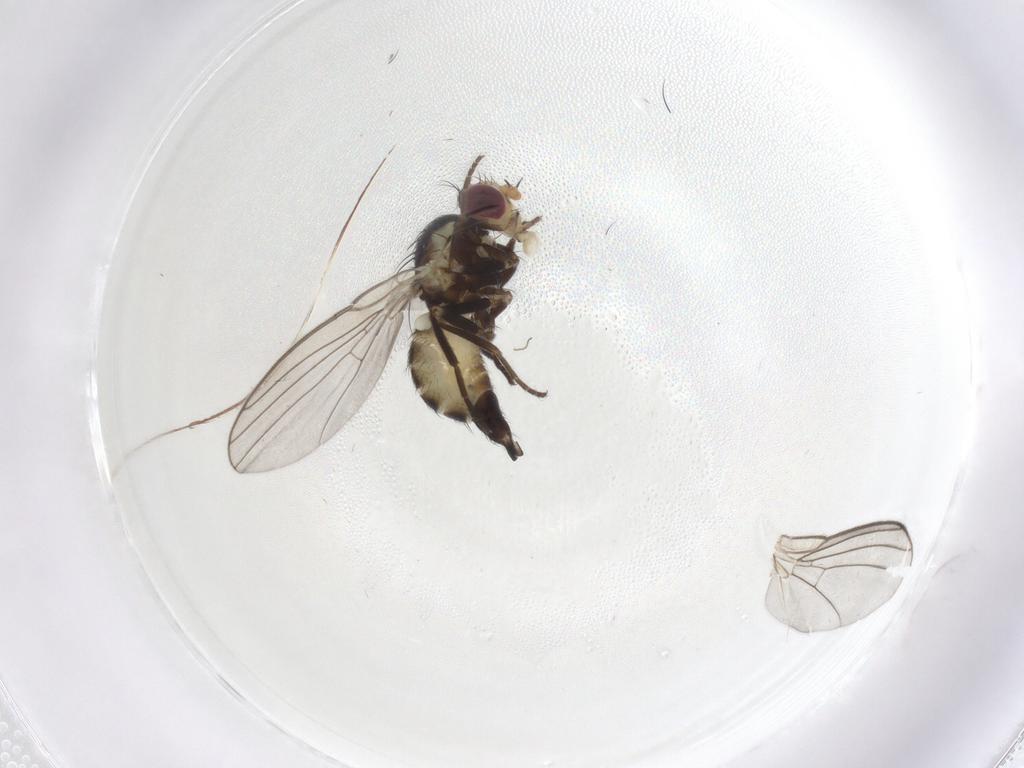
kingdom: Animalia
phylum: Arthropoda
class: Insecta
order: Diptera
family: Agromyzidae
